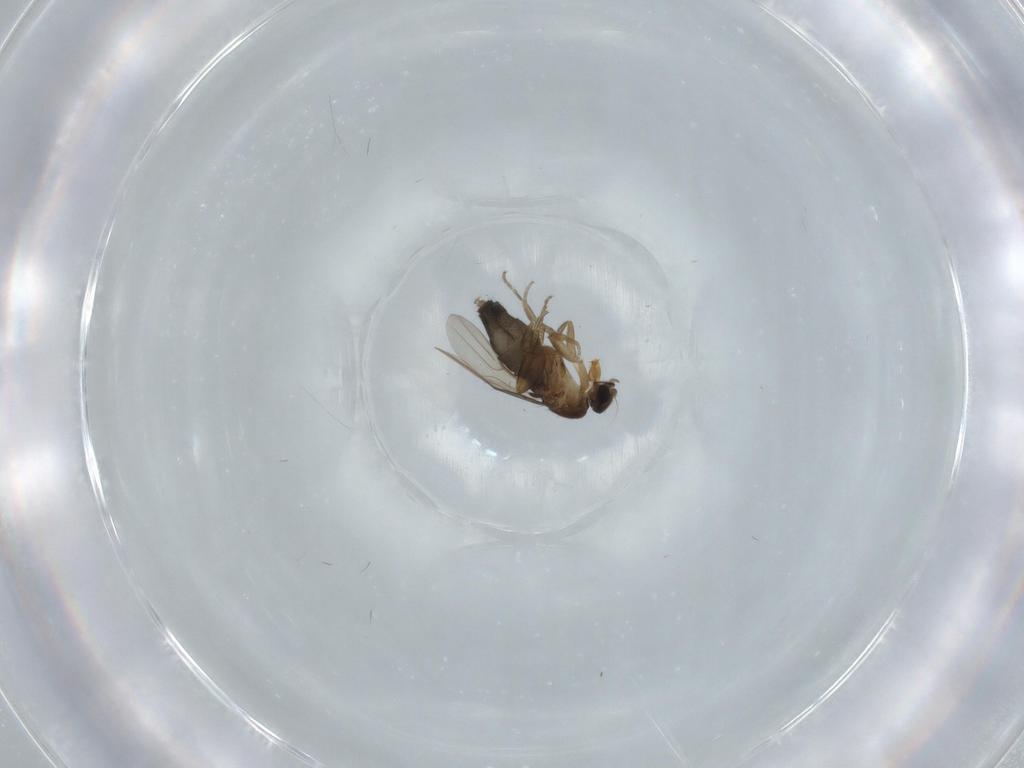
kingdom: Animalia
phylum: Arthropoda
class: Insecta
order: Diptera
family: Phoridae
